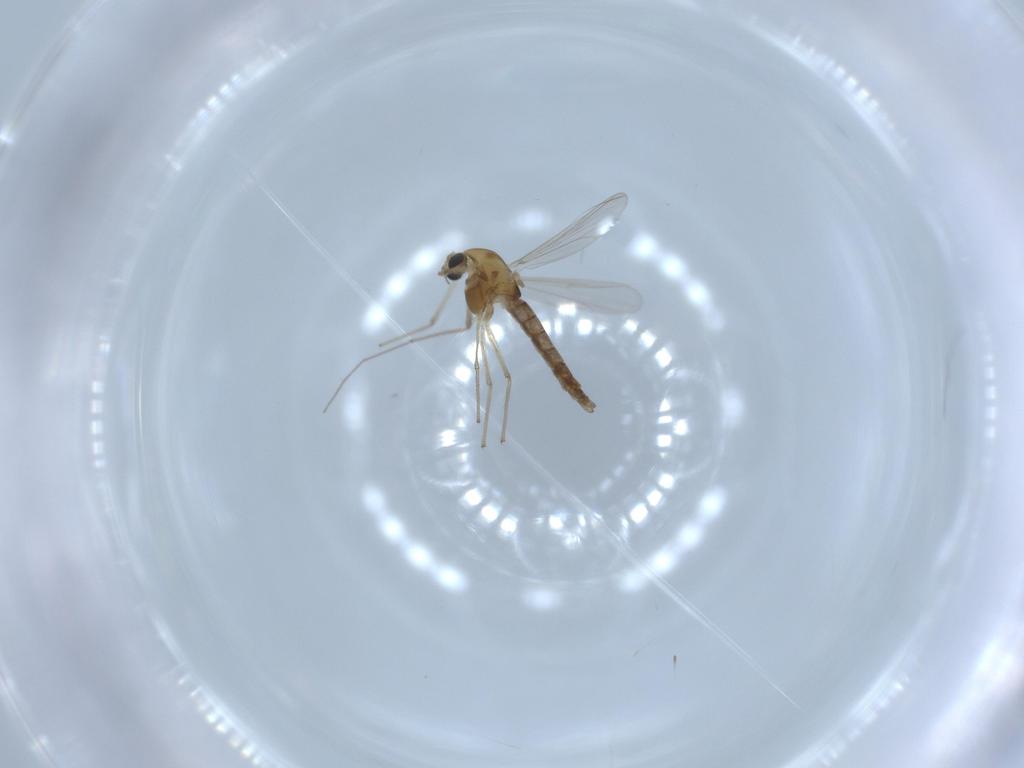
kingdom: Animalia
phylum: Arthropoda
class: Insecta
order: Diptera
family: Chironomidae
